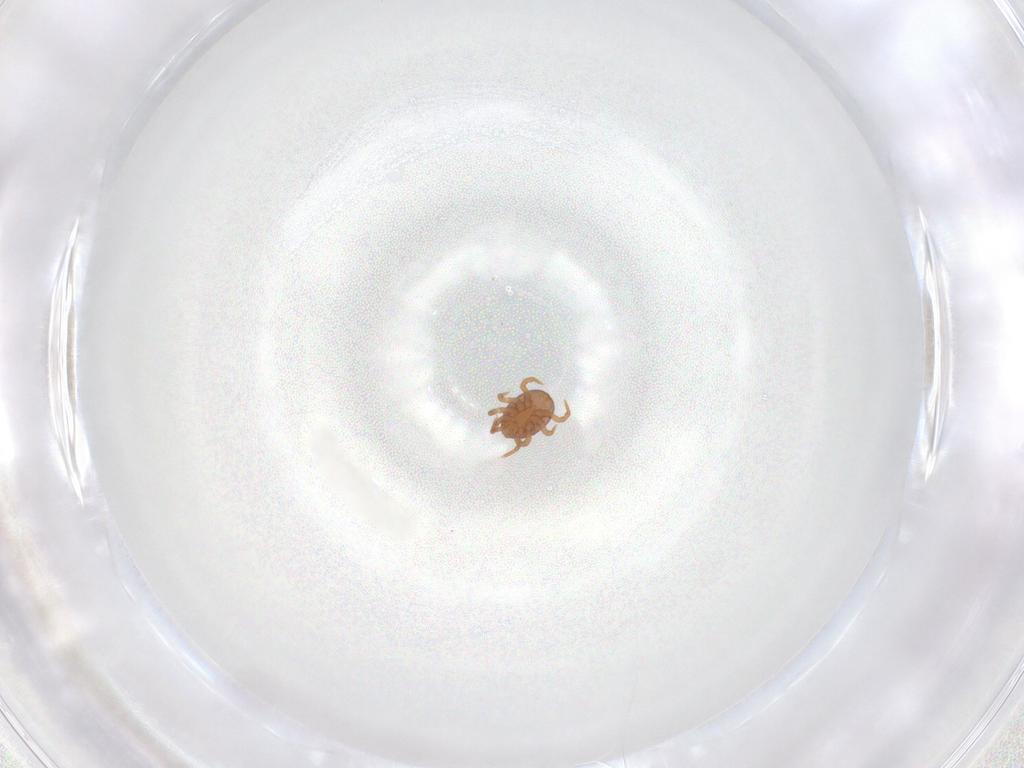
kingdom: Animalia
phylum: Arthropoda
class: Arachnida
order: Mesostigmata
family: Eviphididae
